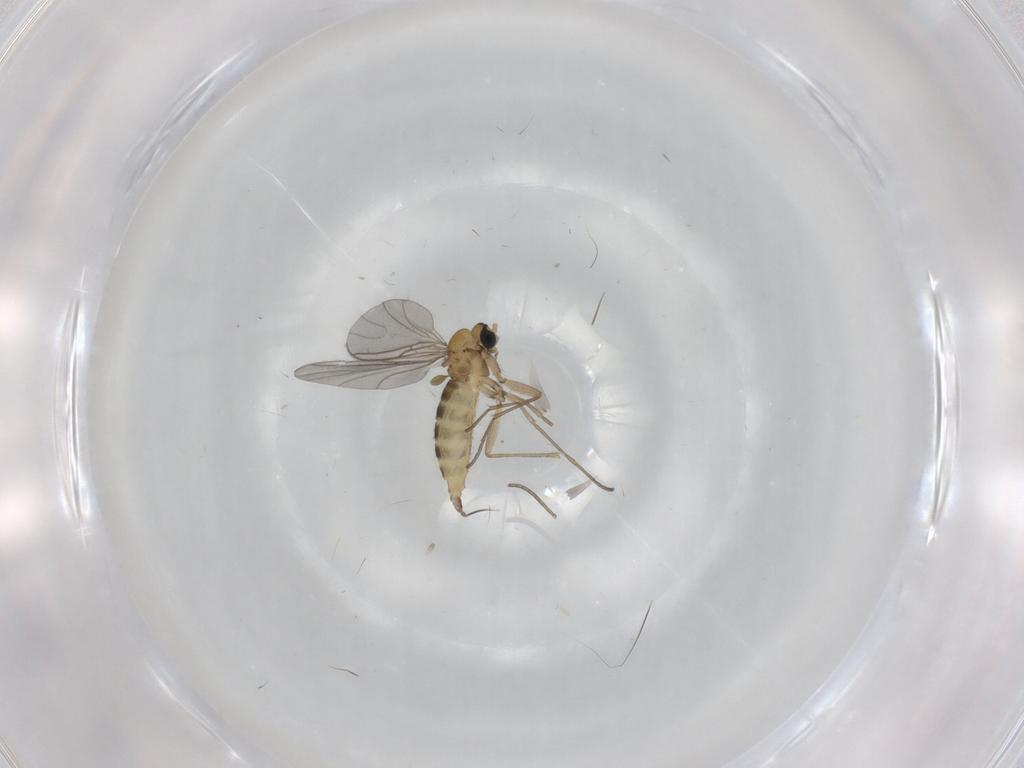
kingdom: Animalia
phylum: Arthropoda
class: Insecta
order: Diptera
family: Sciaridae
